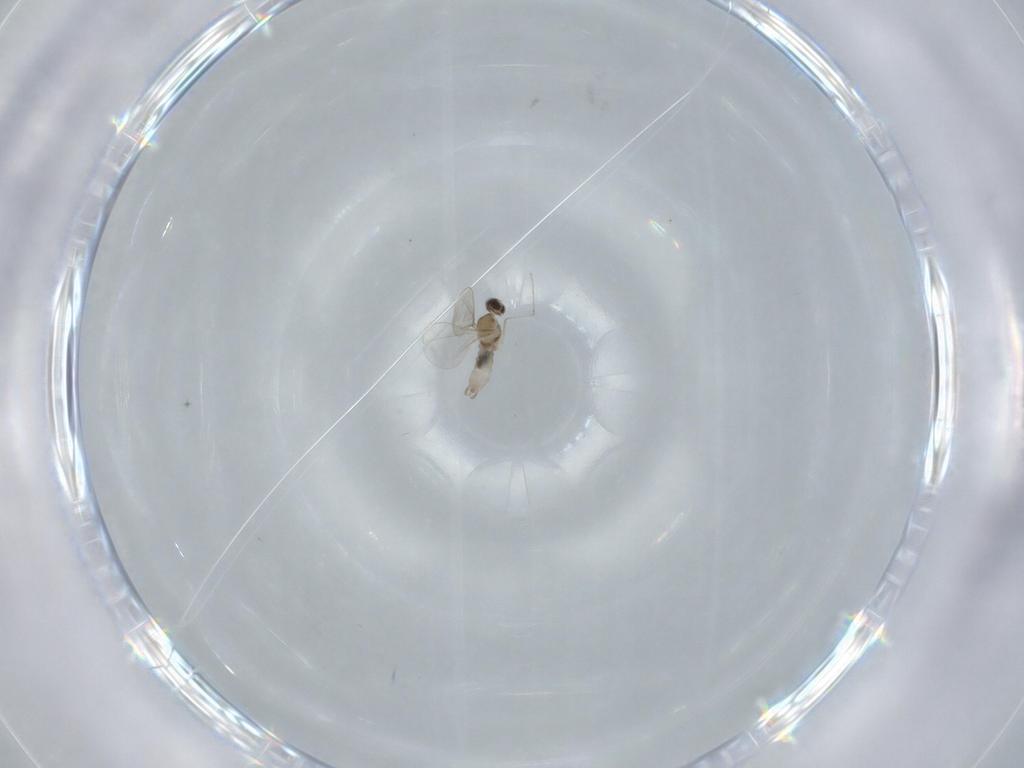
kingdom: Animalia
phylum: Arthropoda
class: Insecta
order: Diptera
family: Cecidomyiidae
